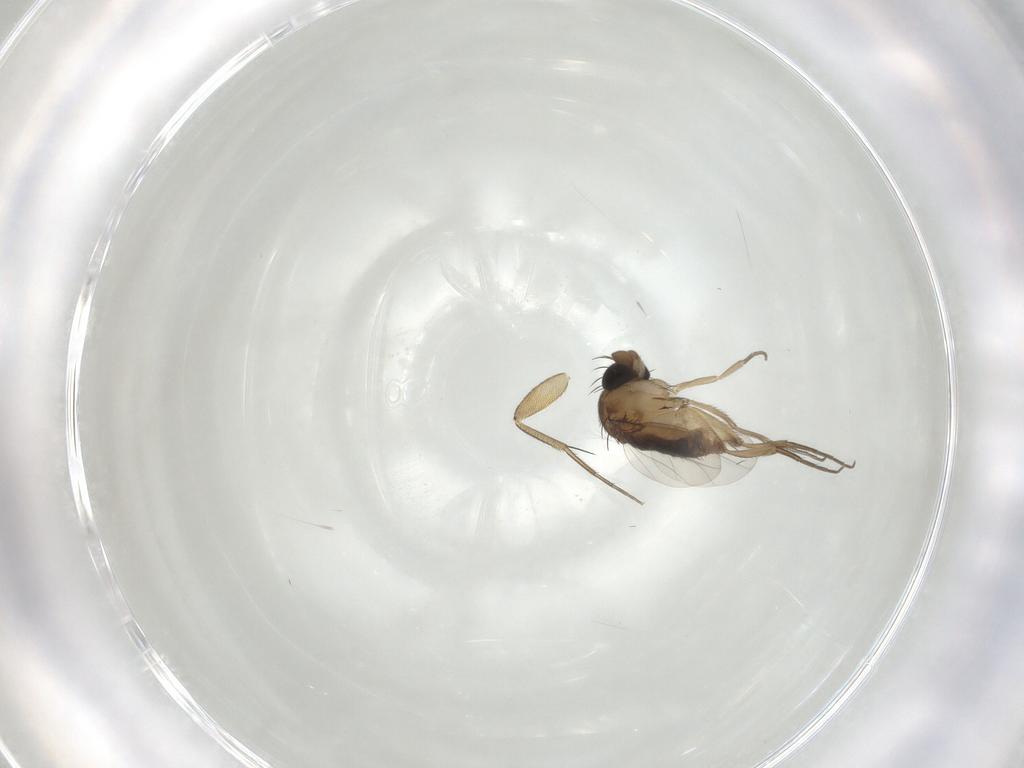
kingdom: Animalia
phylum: Arthropoda
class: Insecta
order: Diptera
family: Phoridae
